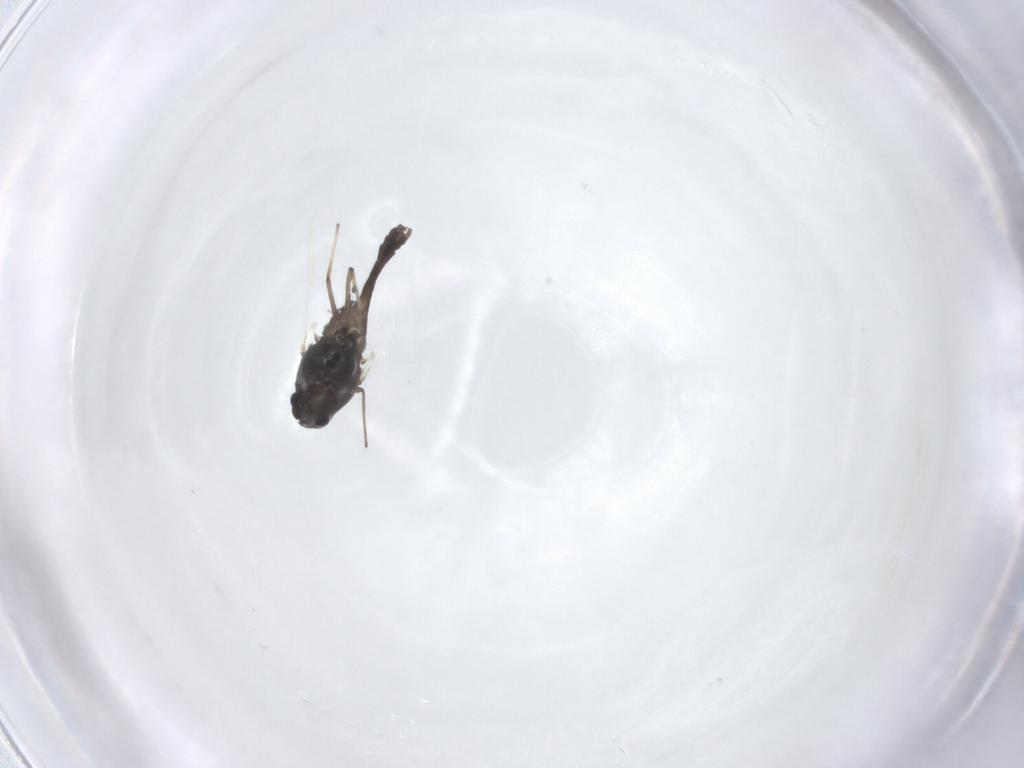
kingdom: Animalia
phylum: Arthropoda
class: Insecta
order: Diptera
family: Chironomidae
